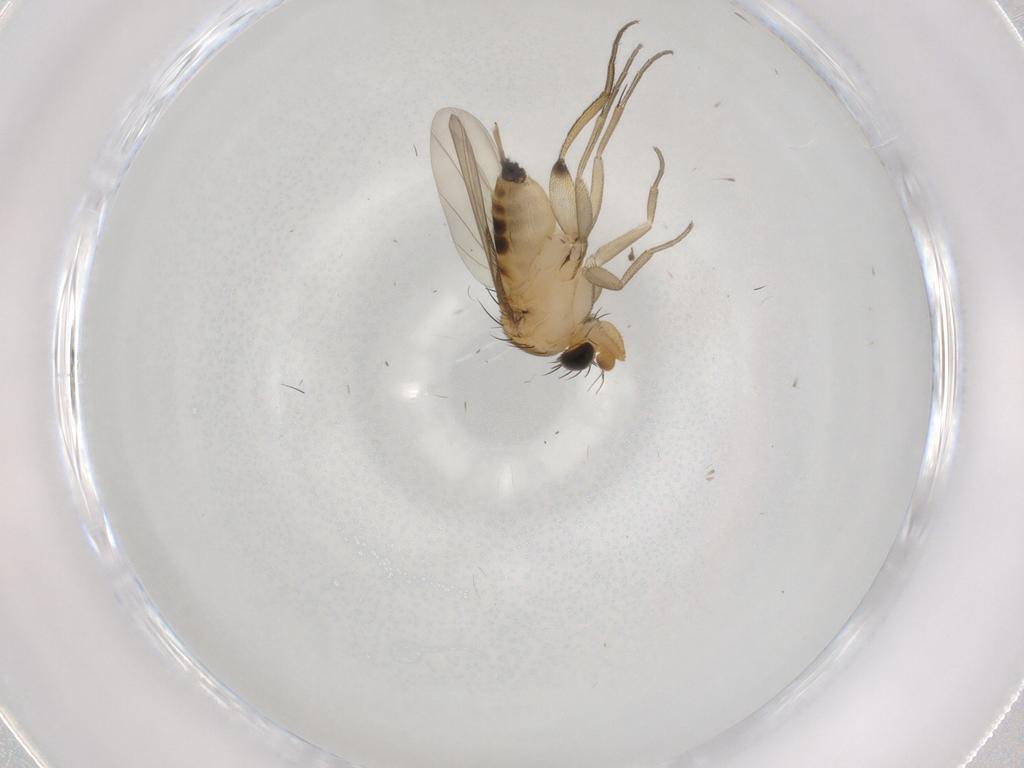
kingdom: Animalia
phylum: Arthropoda
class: Insecta
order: Diptera
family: Phoridae
